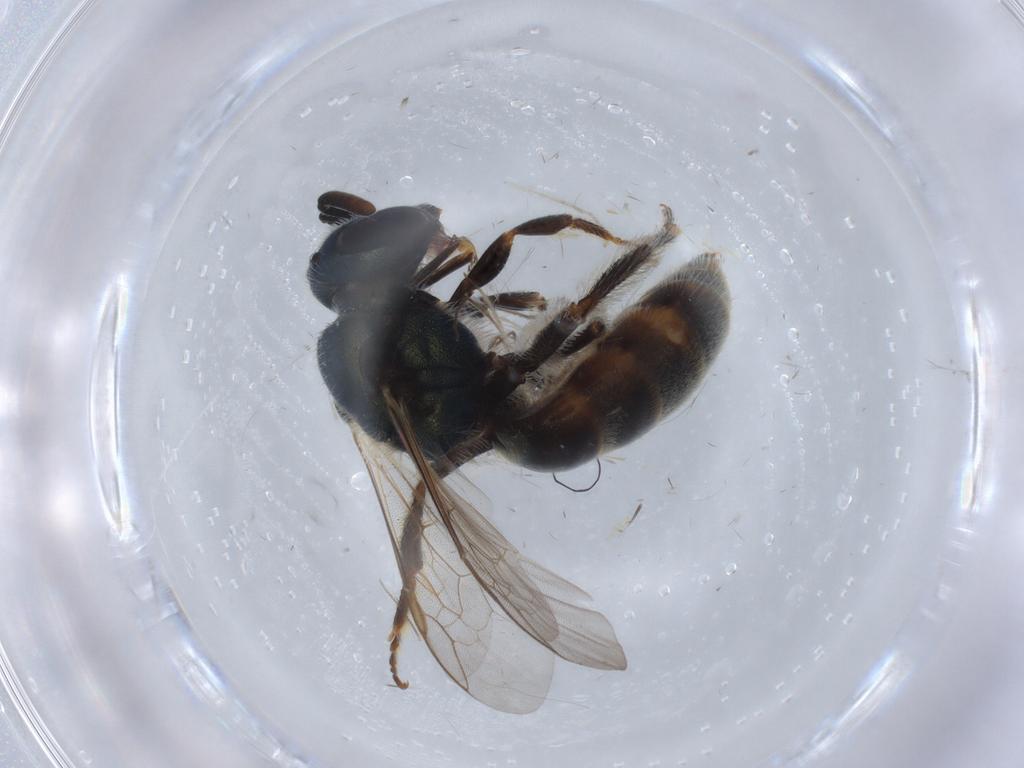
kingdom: Animalia
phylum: Arthropoda
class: Insecta
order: Hymenoptera
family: Halictidae
